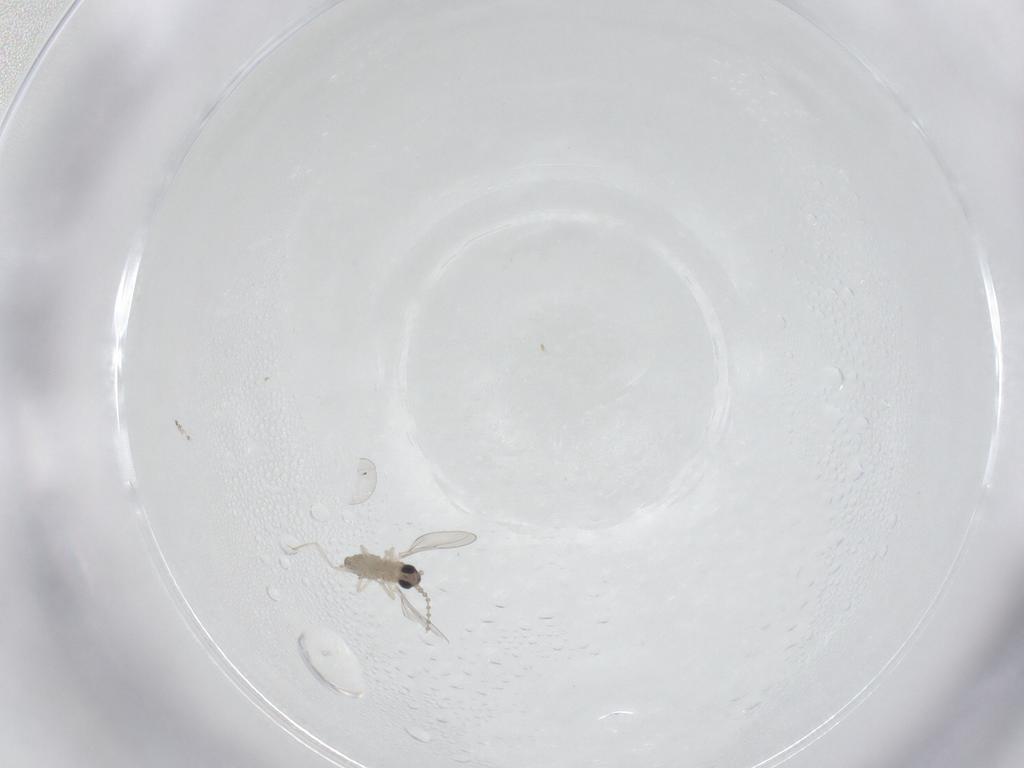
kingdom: Animalia
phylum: Arthropoda
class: Insecta
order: Diptera
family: Cecidomyiidae
